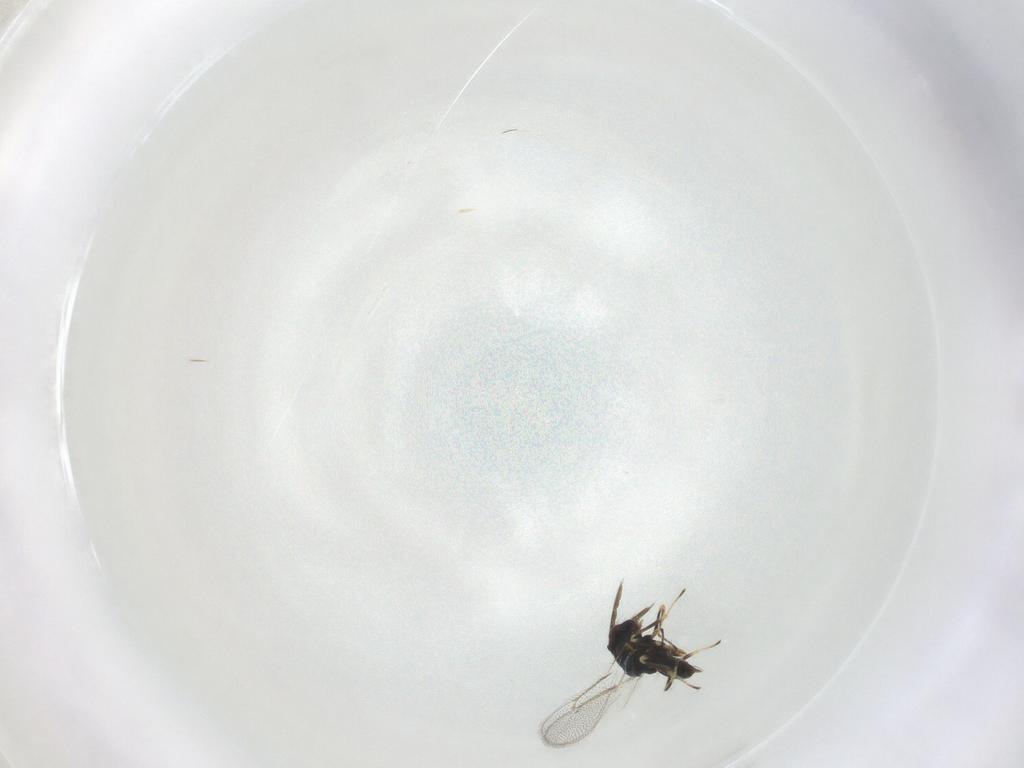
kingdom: Animalia
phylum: Arthropoda
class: Insecta
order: Hymenoptera
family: Eulophidae
